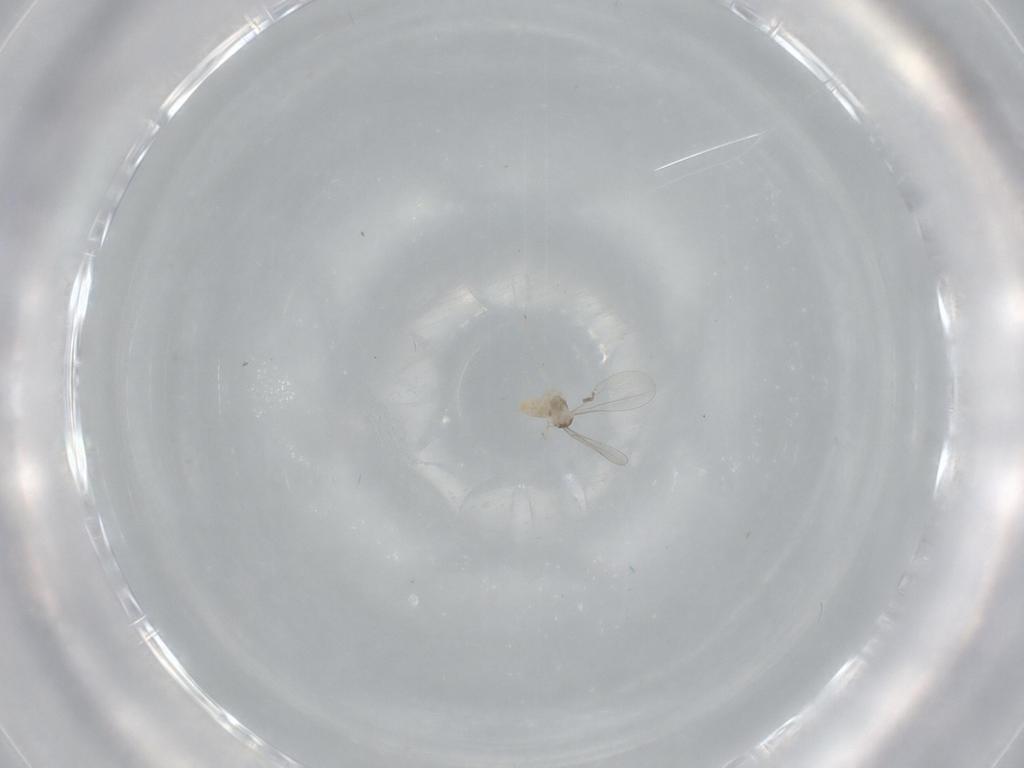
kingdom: Animalia
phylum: Arthropoda
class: Insecta
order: Diptera
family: Cecidomyiidae
